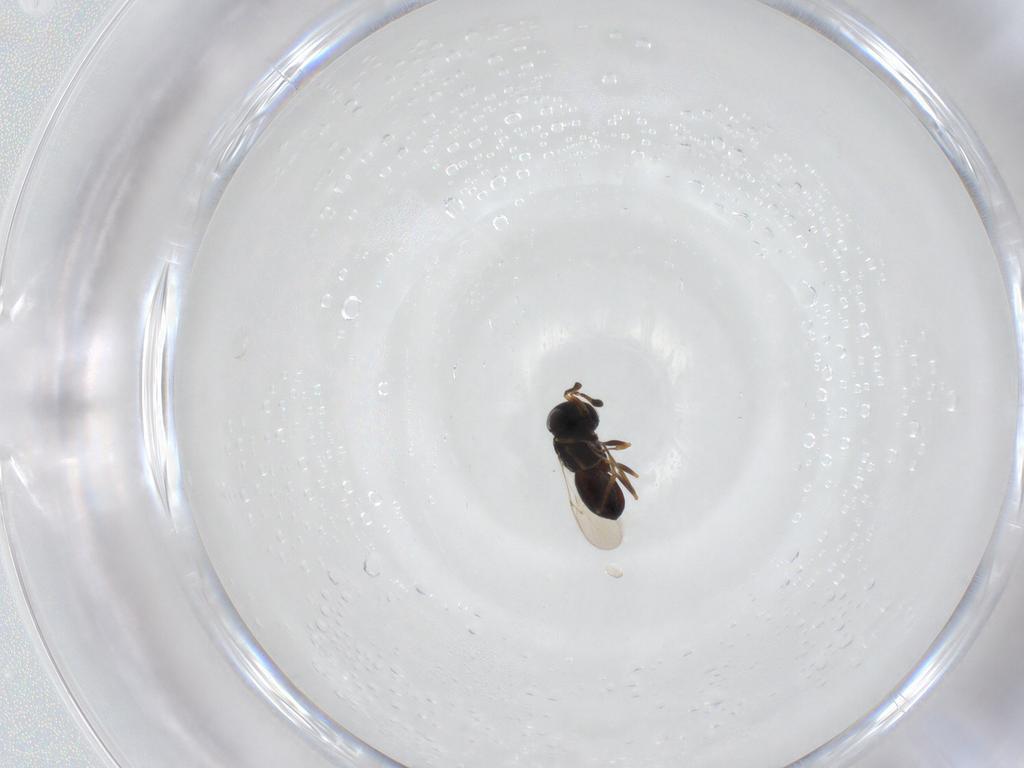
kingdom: Animalia
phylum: Arthropoda
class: Insecta
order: Hymenoptera
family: Scelionidae
